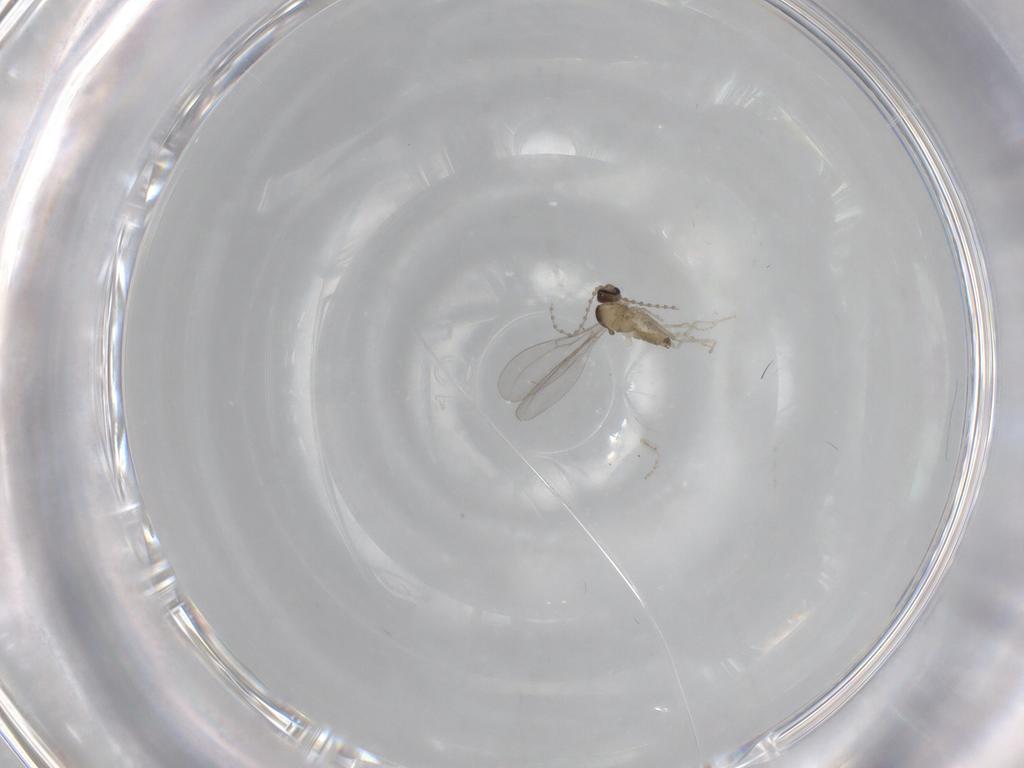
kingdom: Animalia
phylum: Arthropoda
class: Insecta
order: Diptera
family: Cecidomyiidae
